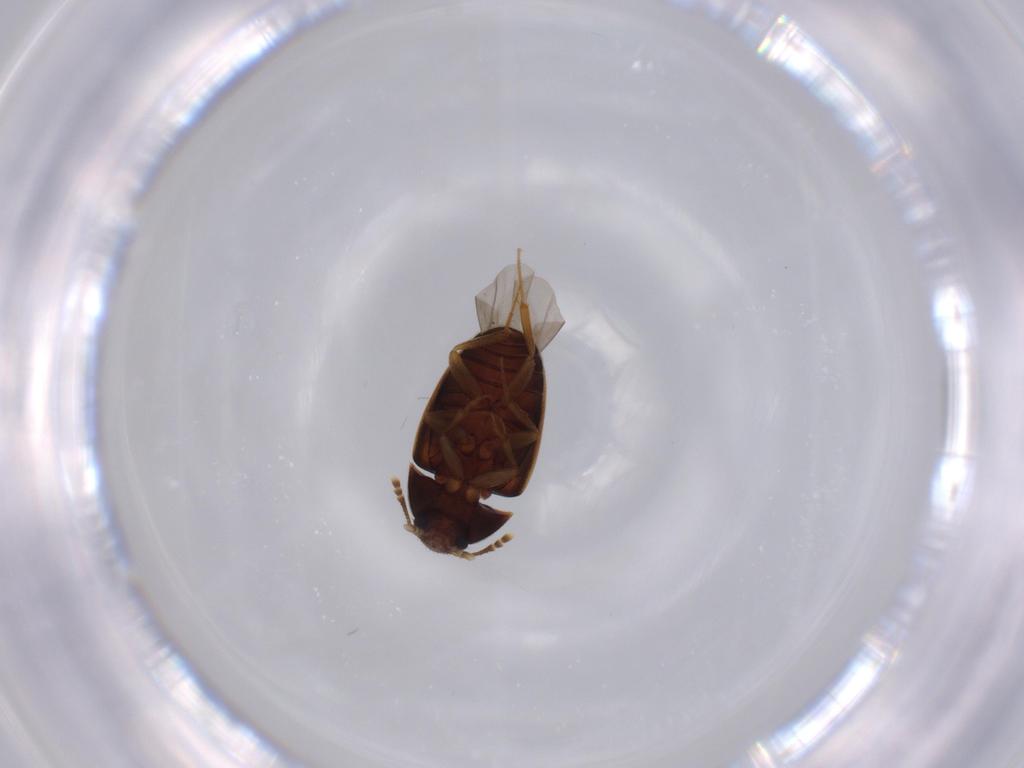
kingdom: Animalia
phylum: Arthropoda
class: Insecta
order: Coleoptera
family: Mycetophagidae
